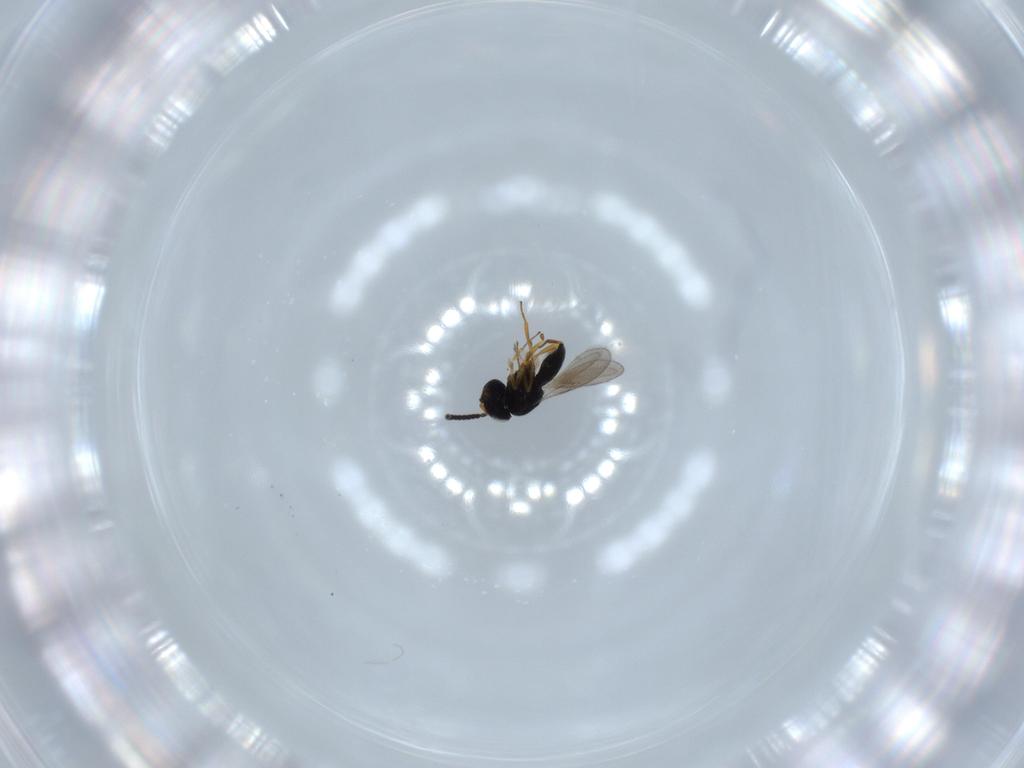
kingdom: Animalia
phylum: Arthropoda
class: Insecta
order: Hymenoptera
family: Scelionidae
